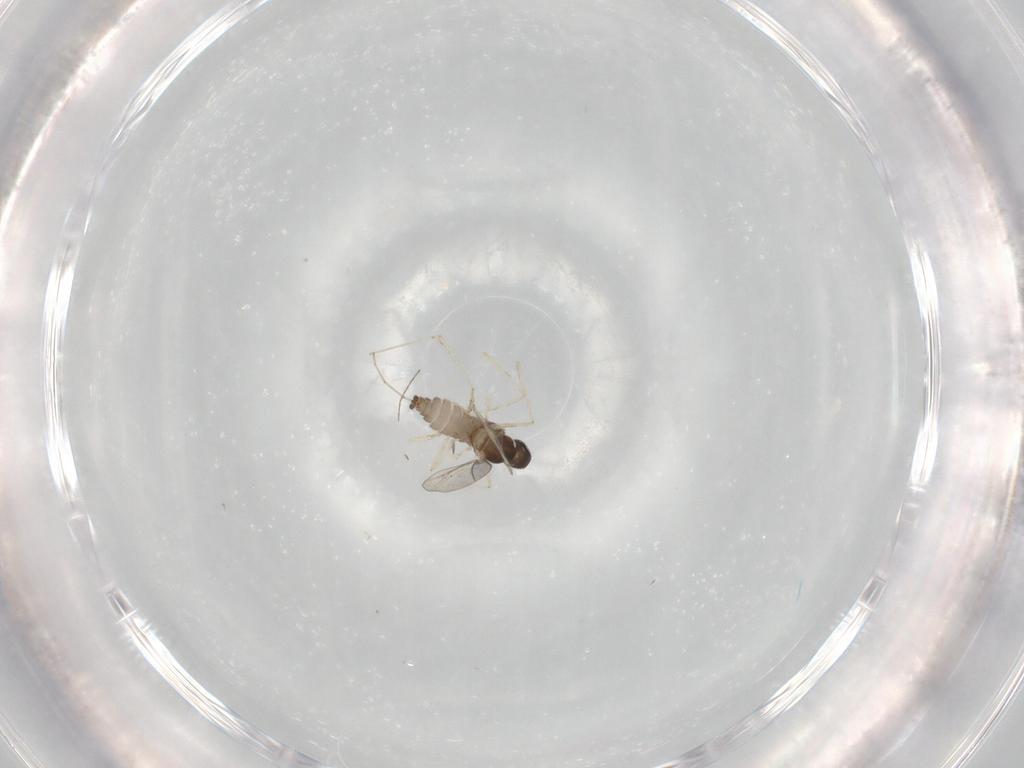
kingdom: Animalia
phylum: Arthropoda
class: Insecta
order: Diptera
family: Cecidomyiidae
